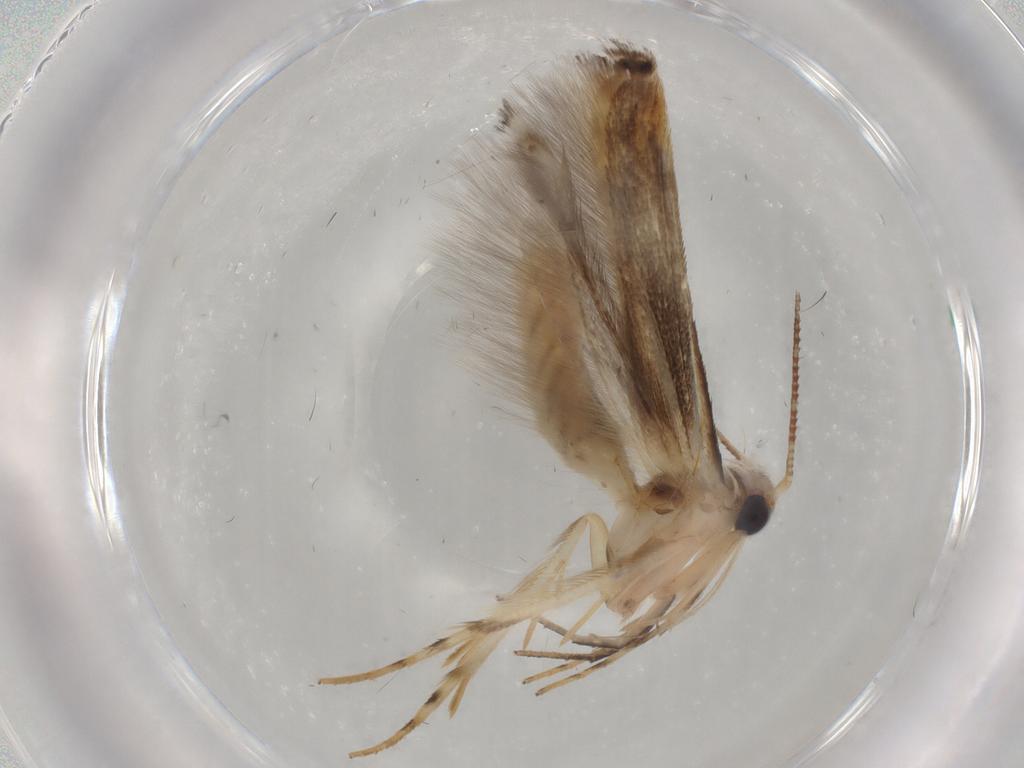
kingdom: Animalia
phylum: Arthropoda
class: Insecta
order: Lepidoptera
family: Gelechiidae
